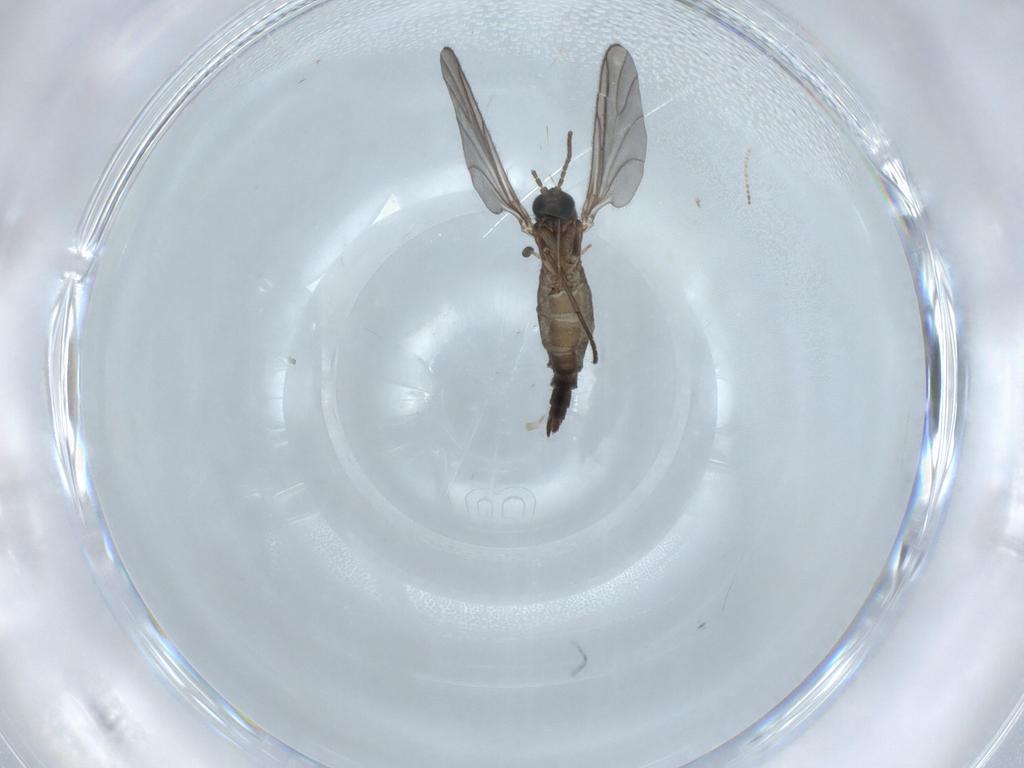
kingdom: Animalia
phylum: Arthropoda
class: Insecta
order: Diptera
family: Sciaridae
